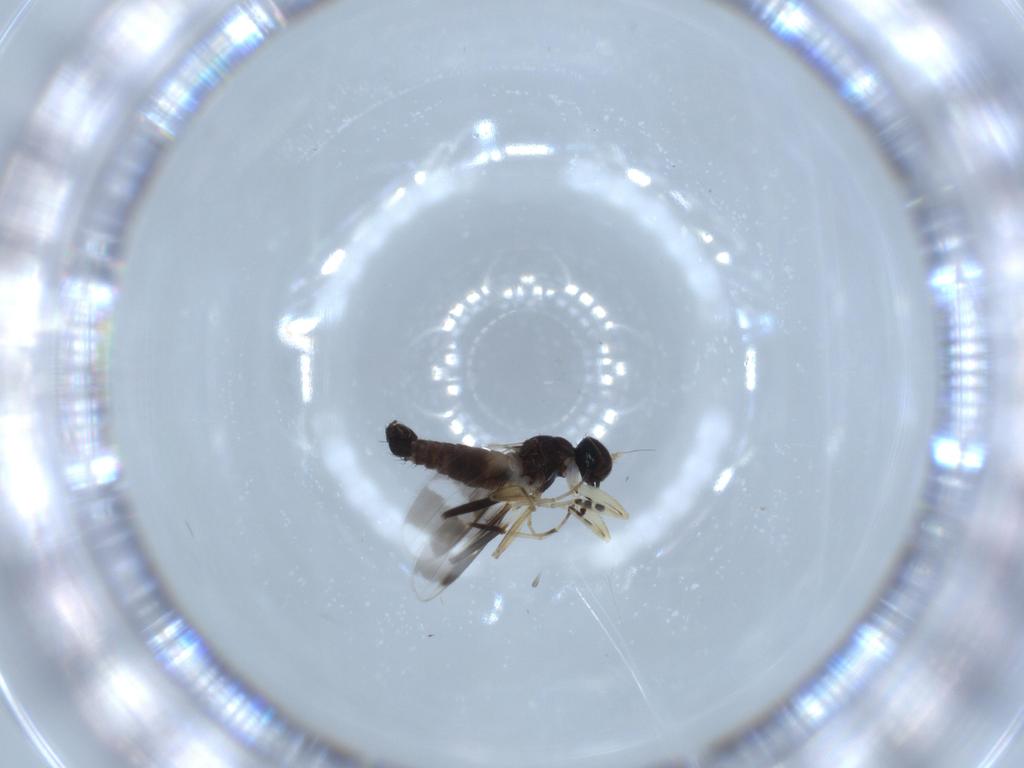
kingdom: Animalia
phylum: Arthropoda
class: Insecta
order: Diptera
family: Hybotidae
